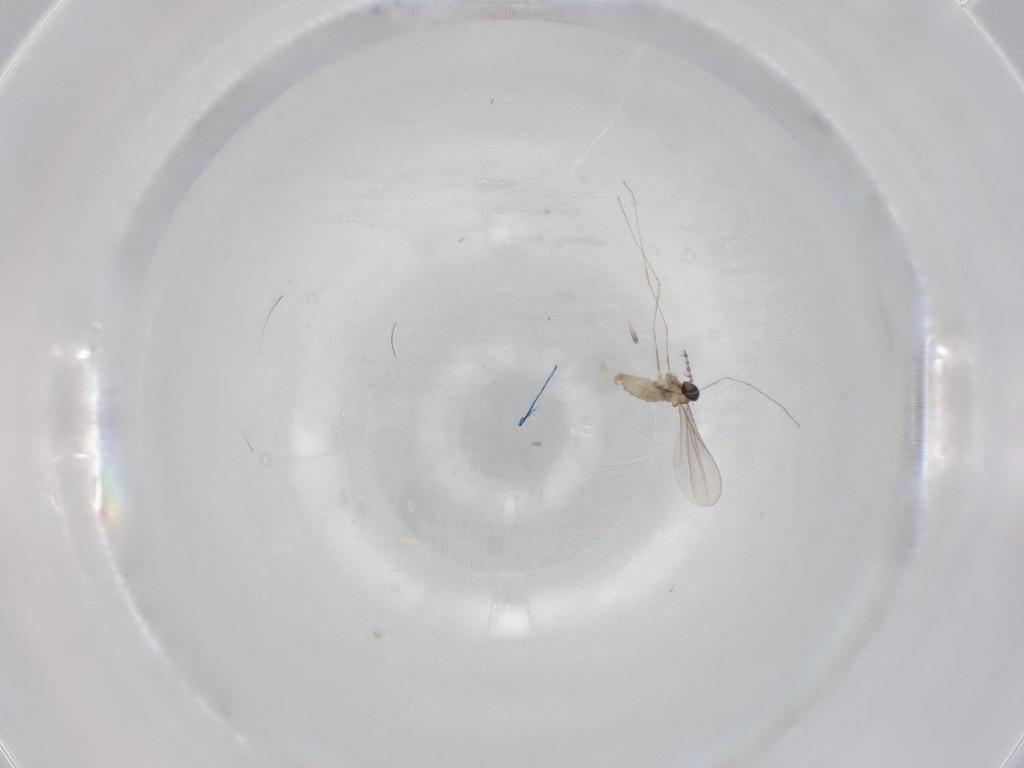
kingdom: Animalia
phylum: Arthropoda
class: Insecta
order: Diptera
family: Cecidomyiidae
